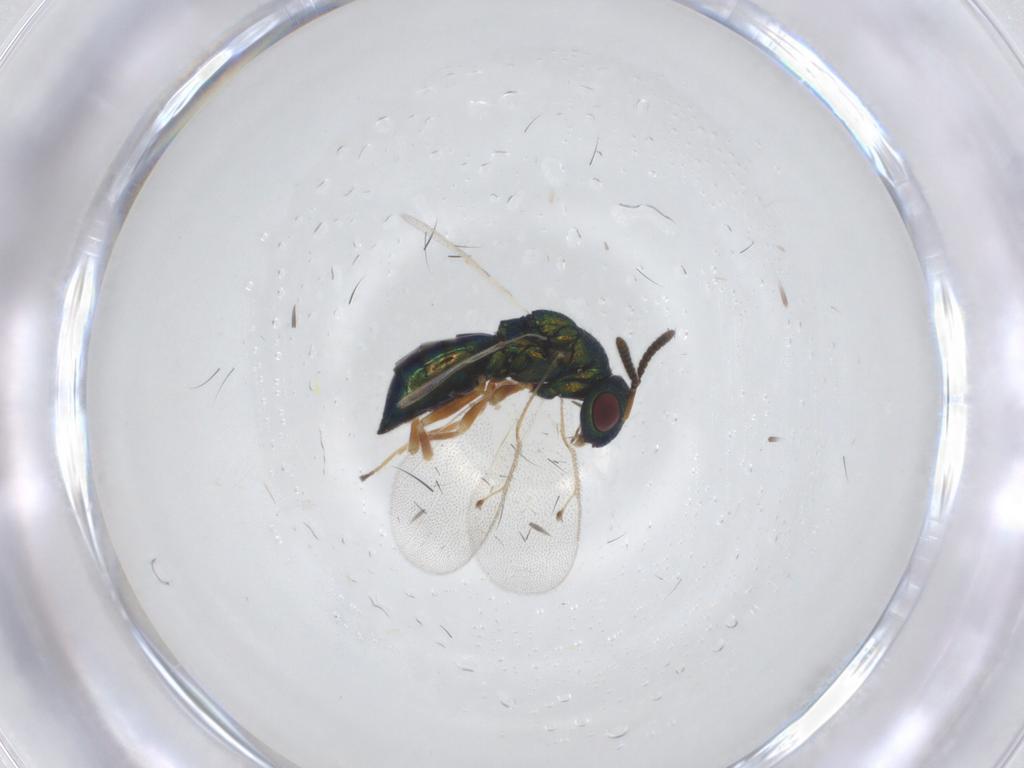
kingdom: Animalia
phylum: Arthropoda
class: Insecta
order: Hymenoptera
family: Pteromalidae
